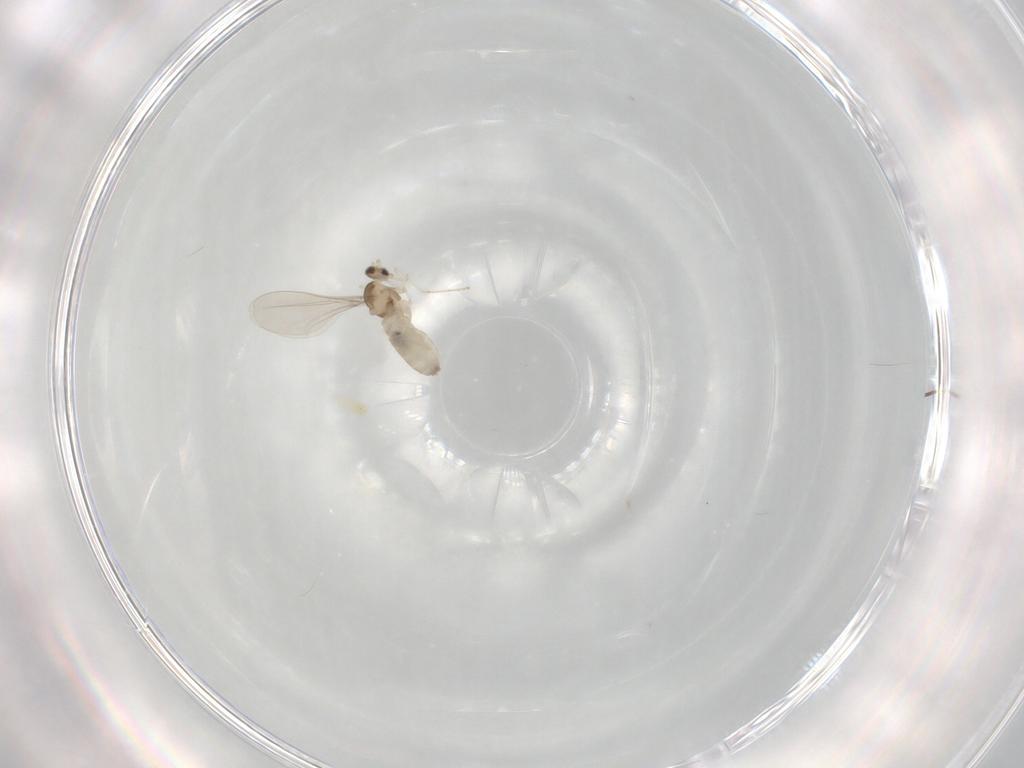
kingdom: Animalia
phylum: Arthropoda
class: Insecta
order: Diptera
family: Cecidomyiidae
